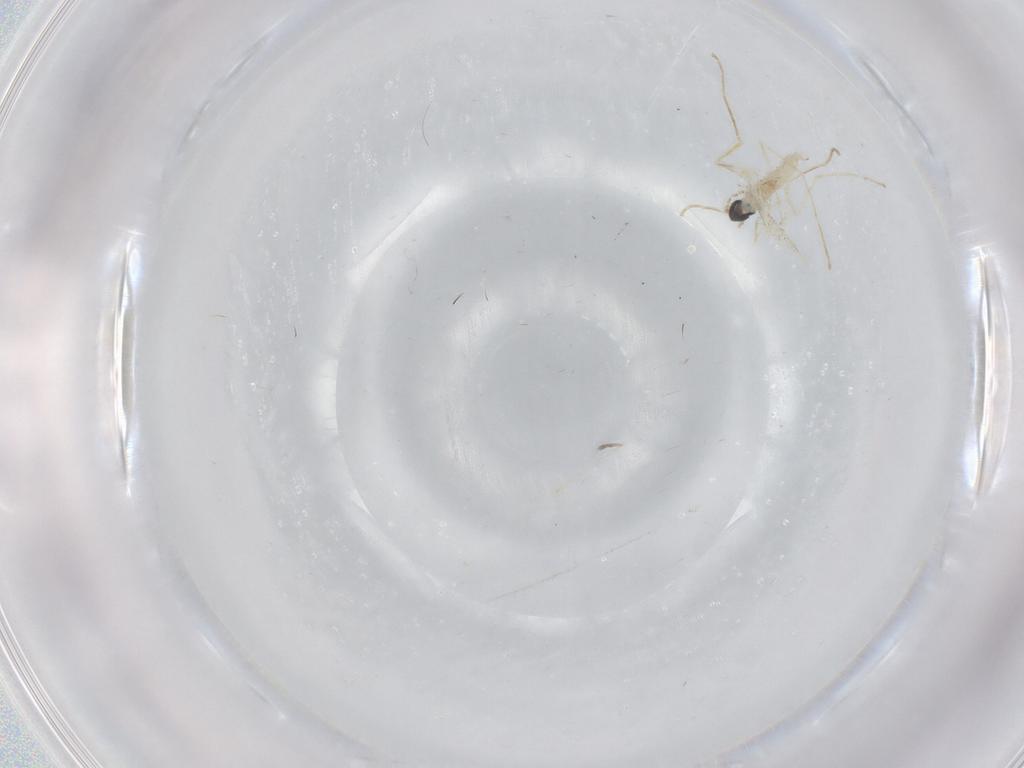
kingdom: Animalia
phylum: Arthropoda
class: Insecta
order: Diptera
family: Cecidomyiidae
